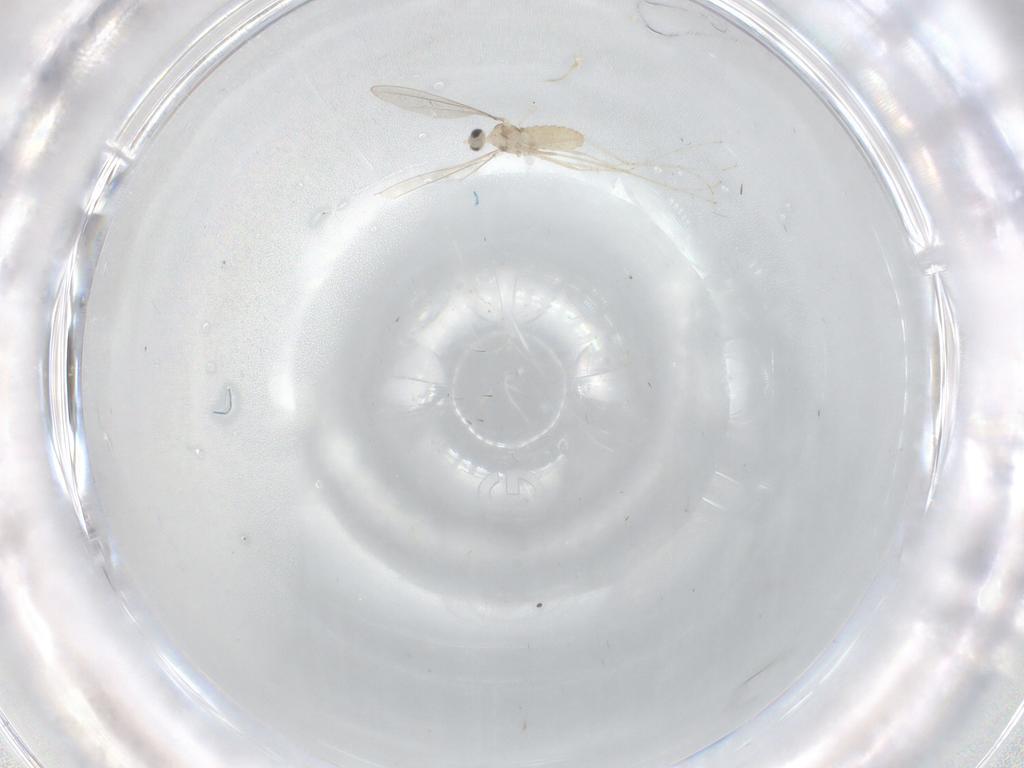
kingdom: Animalia
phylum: Arthropoda
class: Insecta
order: Diptera
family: Cecidomyiidae
